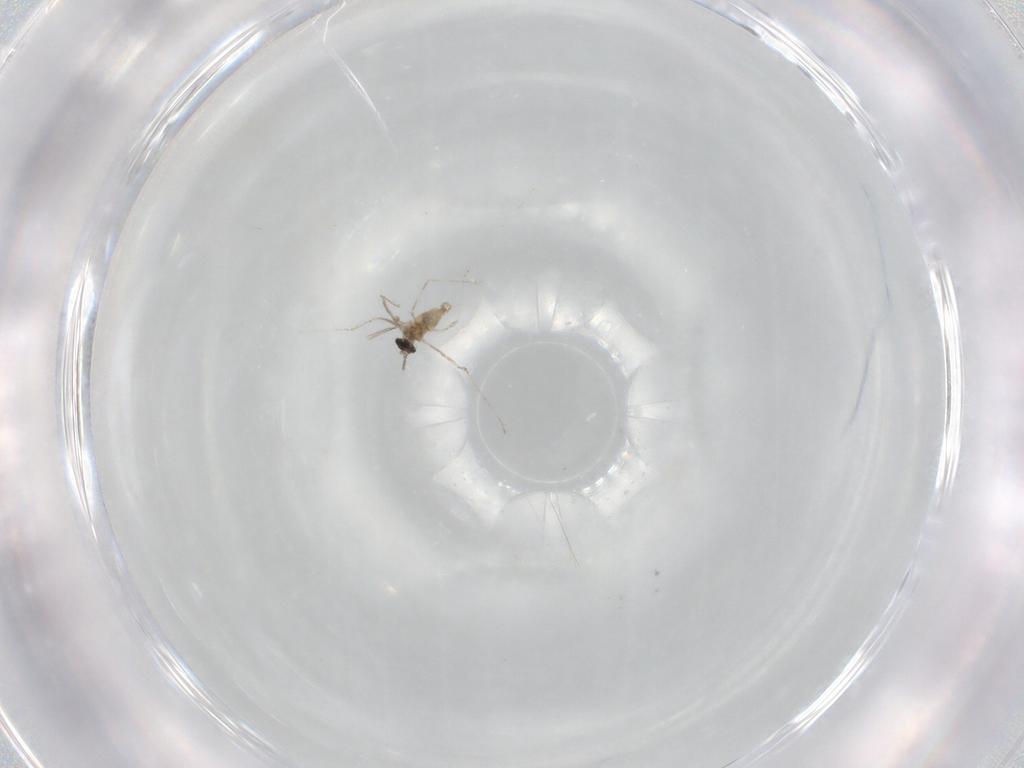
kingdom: Animalia
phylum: Arthropoda
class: Insecta
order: Diptera
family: Cecidomyiidae
